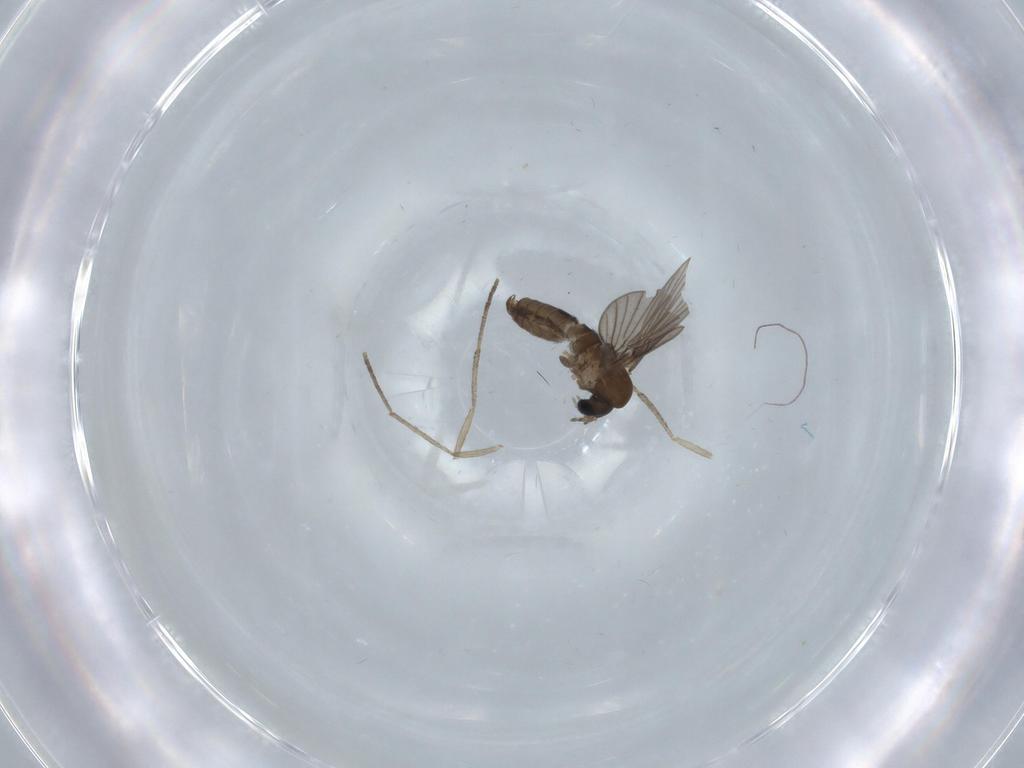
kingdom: Animalia
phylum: Arthropoda
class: Insecta
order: Diptera
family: Psychodidae
